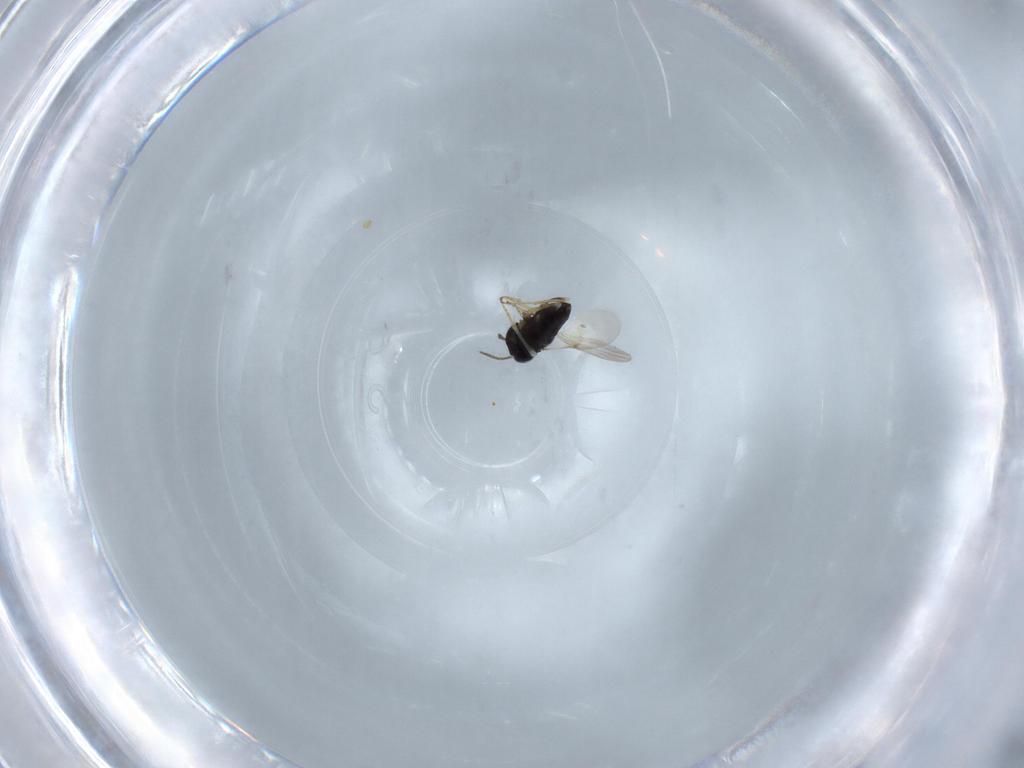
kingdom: Animalia
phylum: Arthropoda
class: Insecta
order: Hymenoptera
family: Encyrtidae
